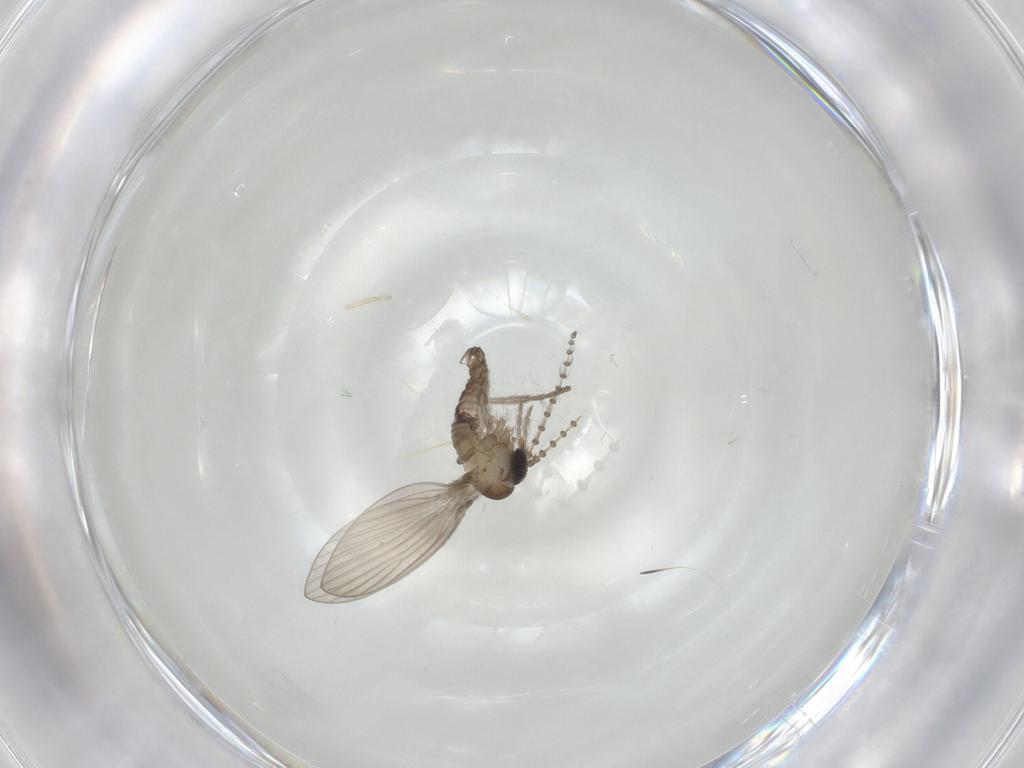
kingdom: Animalia
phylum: Arthropoda
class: Insecta
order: Diptera
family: Psychodidae
